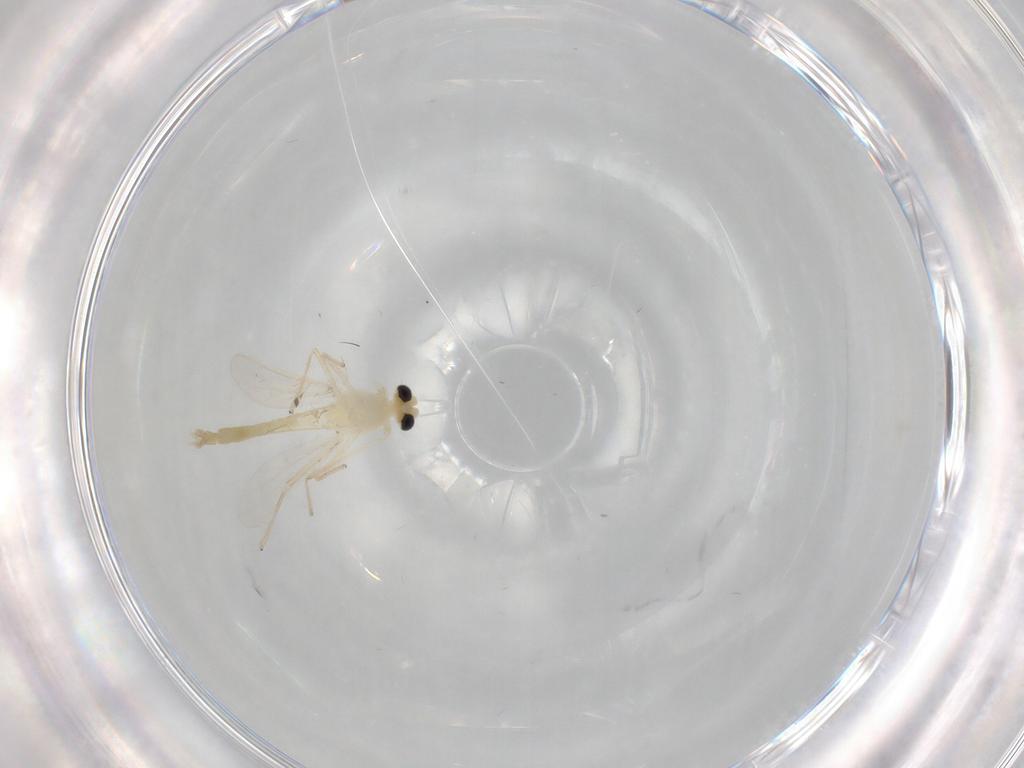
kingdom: Animalia
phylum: Arthropoda
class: Insecta
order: Diptera
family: Chironomidae
